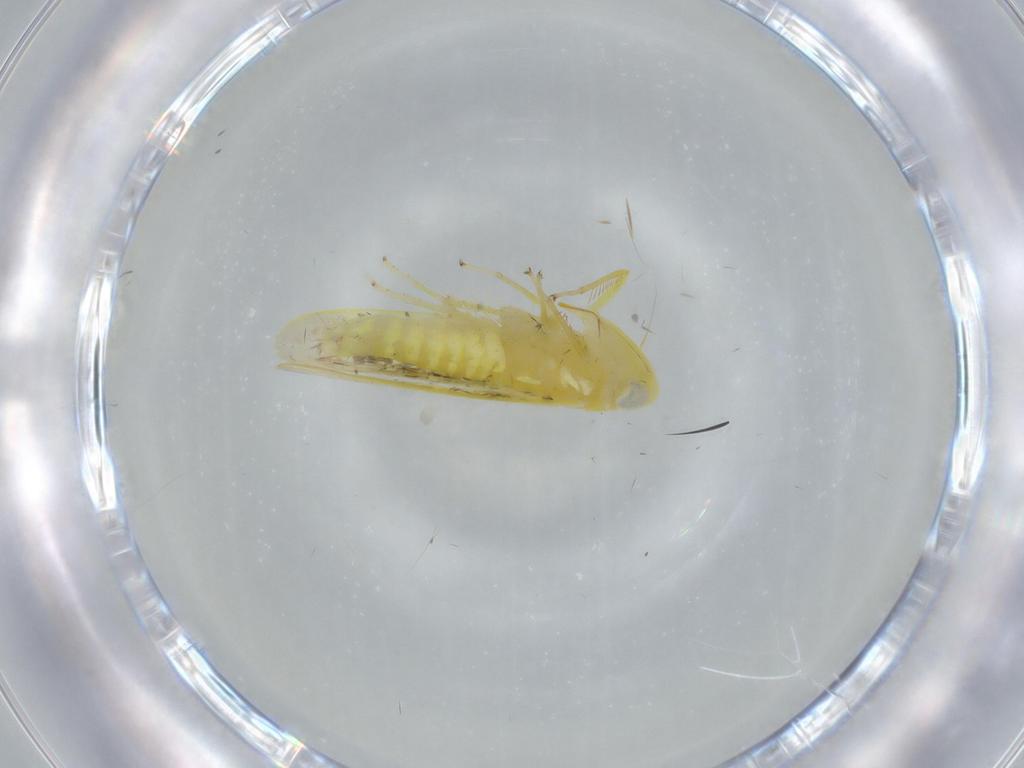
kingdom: Animalia
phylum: Arthropoda
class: Insecta
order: Hemiptera
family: Cicadellidae
